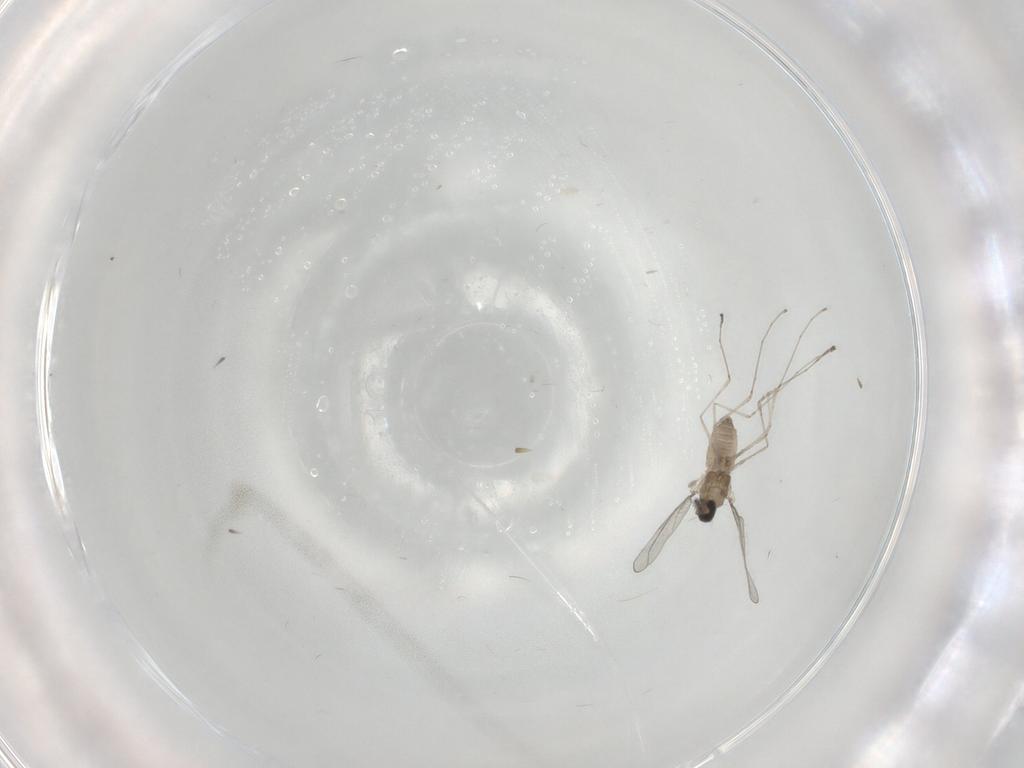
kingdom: Animalia
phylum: Arthropoda
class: Insecta
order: Diptera
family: Cecidomyiidae
